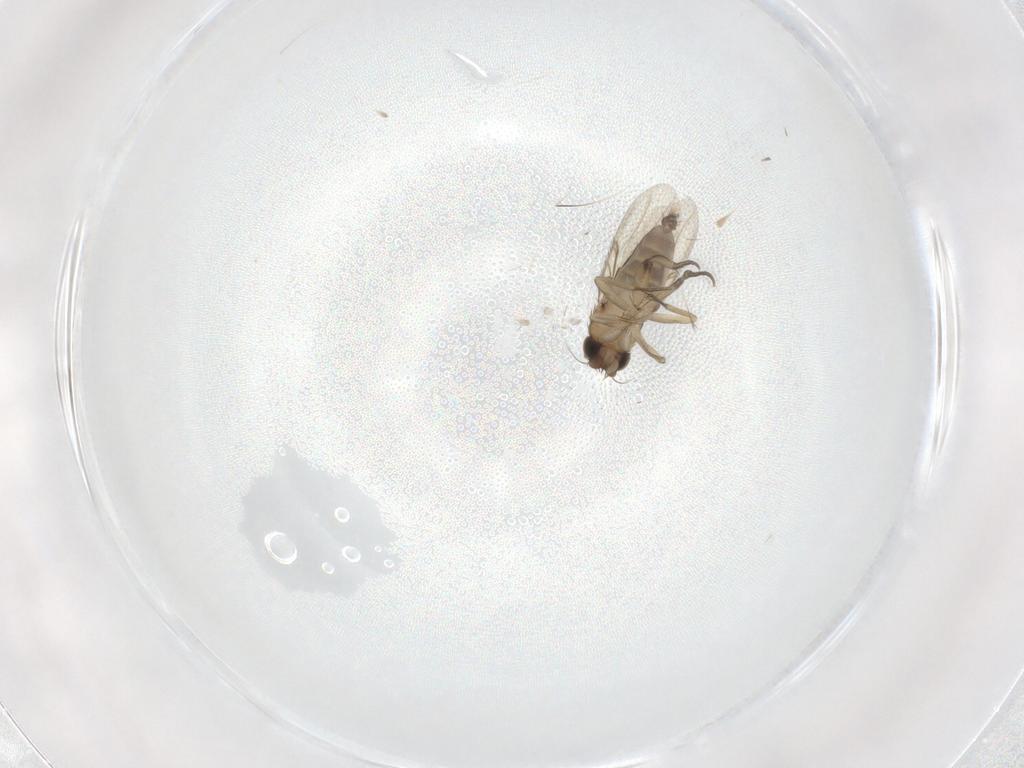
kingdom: Animalia
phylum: Arthropoda
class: Insecta
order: Diptera
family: Phoridae
